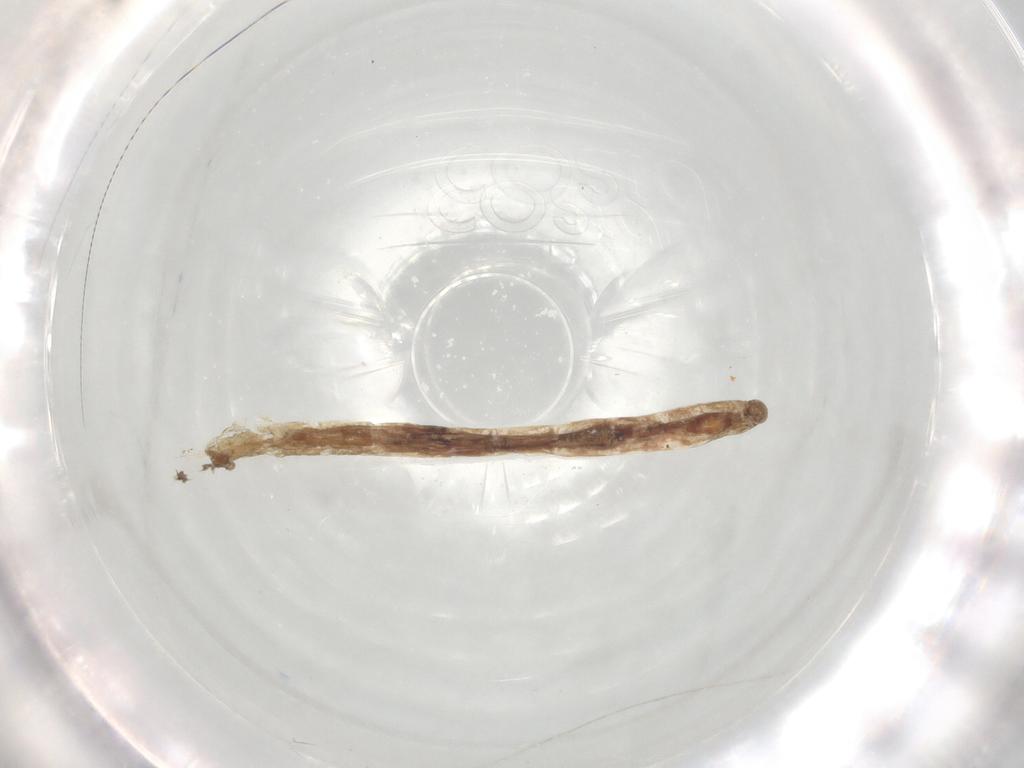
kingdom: Animalia
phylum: Arthropoda
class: Insecta
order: Diptera
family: Chironomidae
